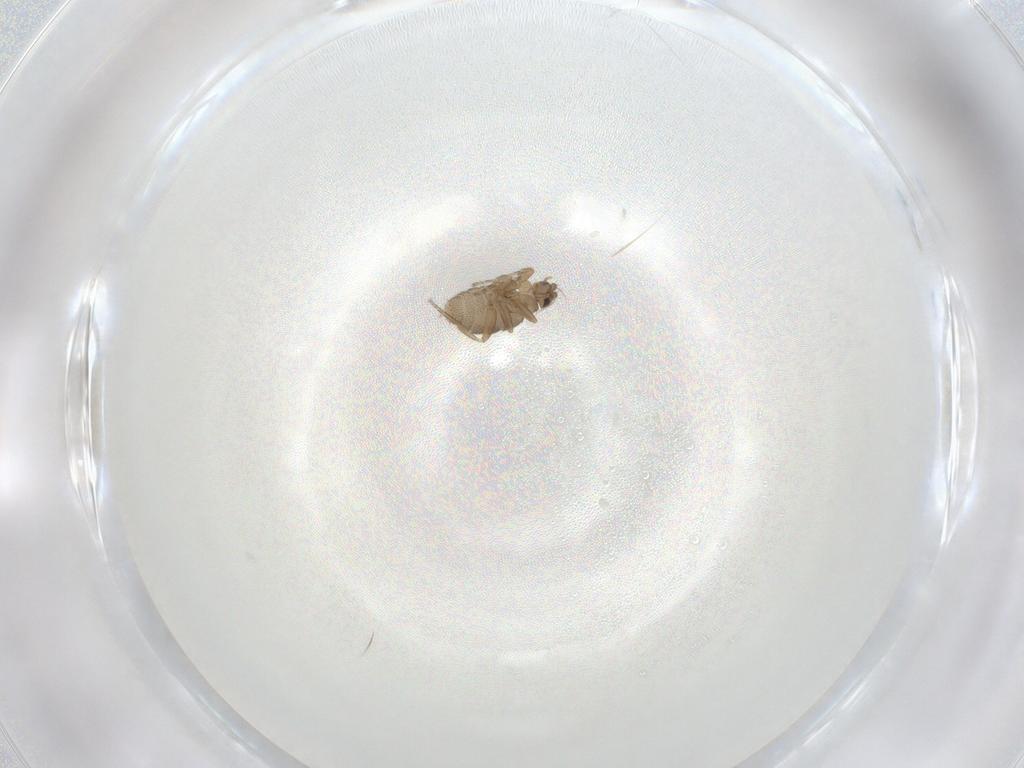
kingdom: Animalia
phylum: Arthropoda
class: Insecta
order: Diptera
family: Phoridae
